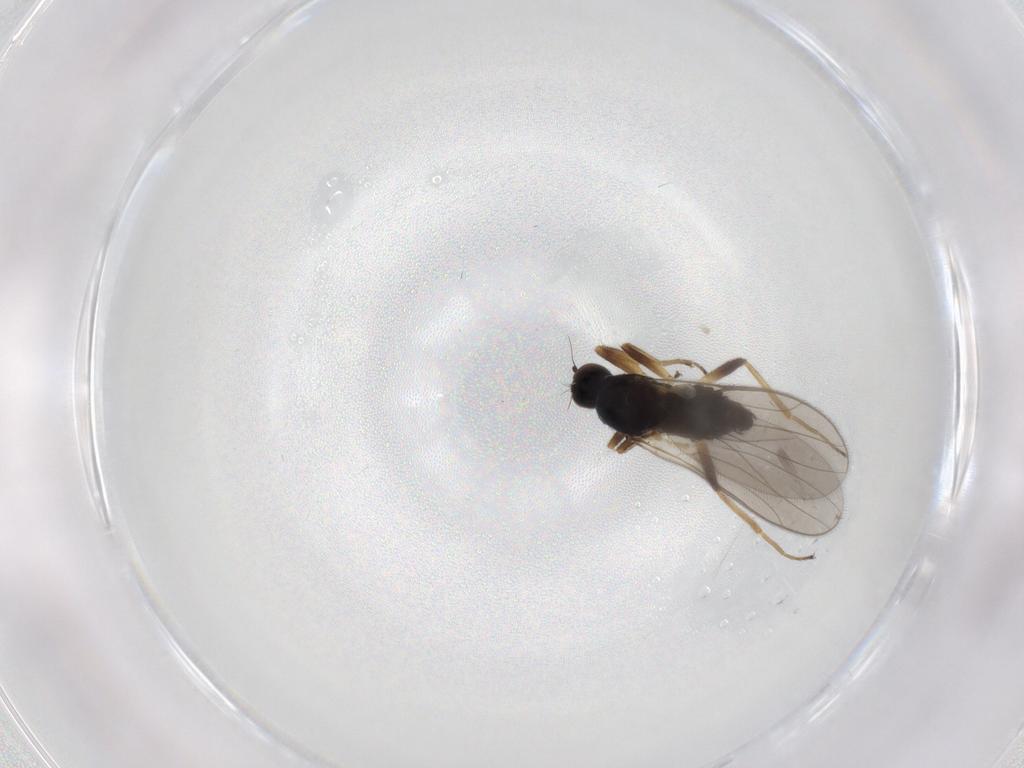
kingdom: Animalia
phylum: Arthropoda
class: Insecta
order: Diptera
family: Hybotidae
